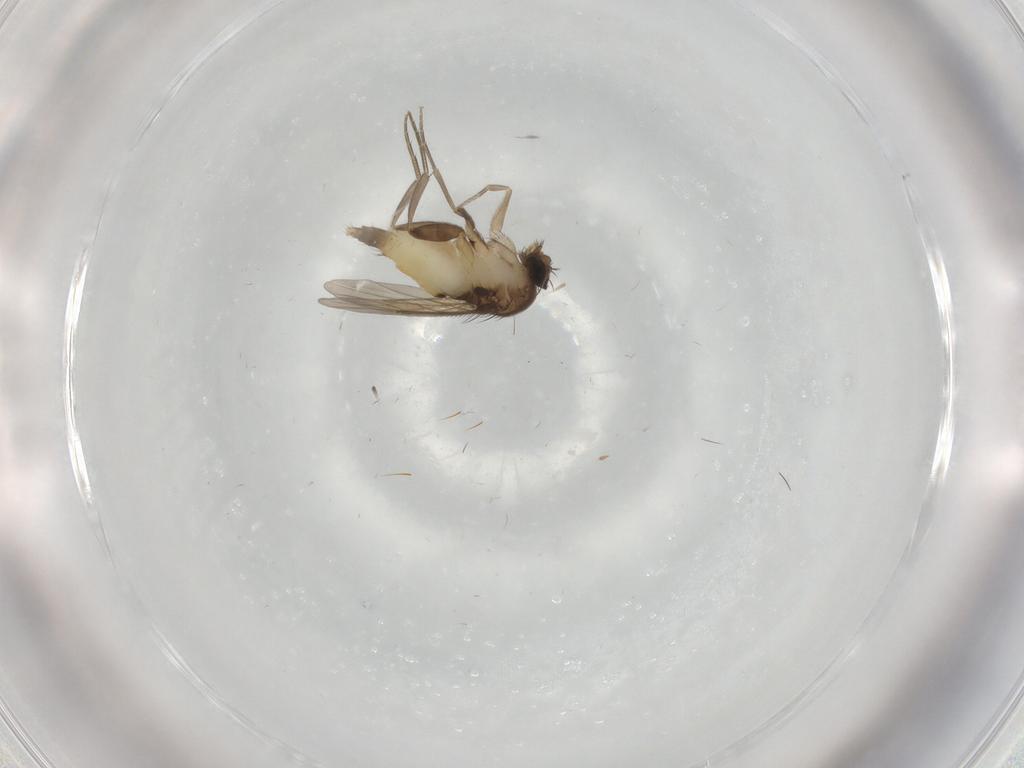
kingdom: Animalia
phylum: Arthropoda
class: Insecta
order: Diptera
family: Phoridae
